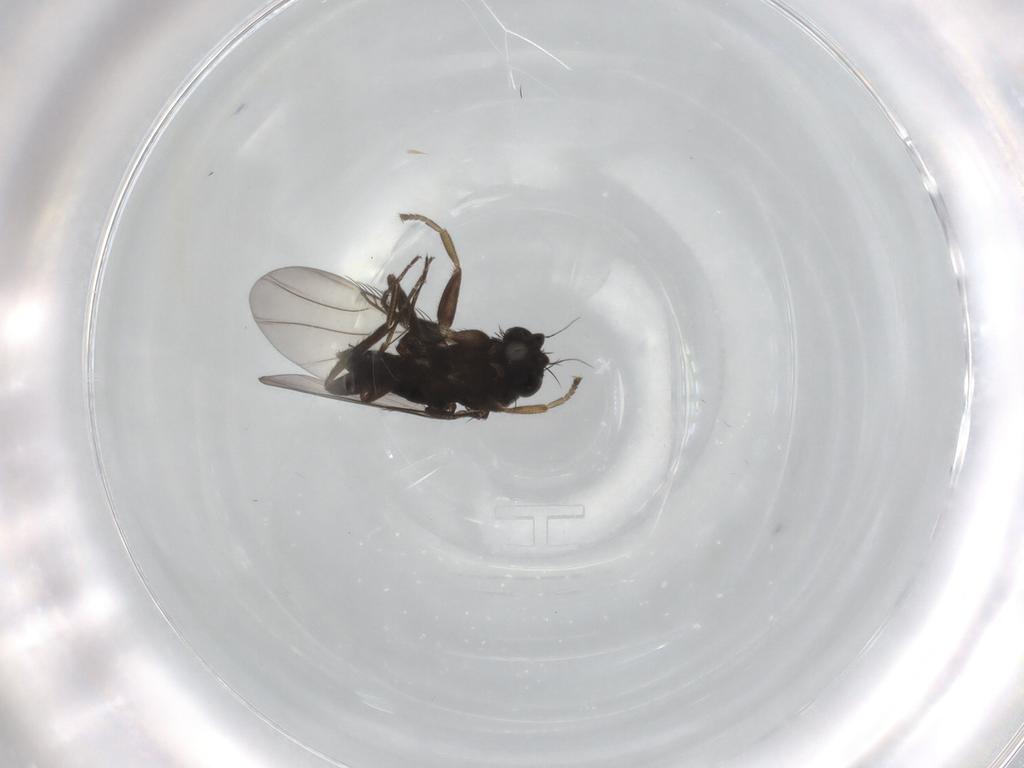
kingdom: Animalia
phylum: Arthropoda
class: Insecta
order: Diptera
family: Phoridae
